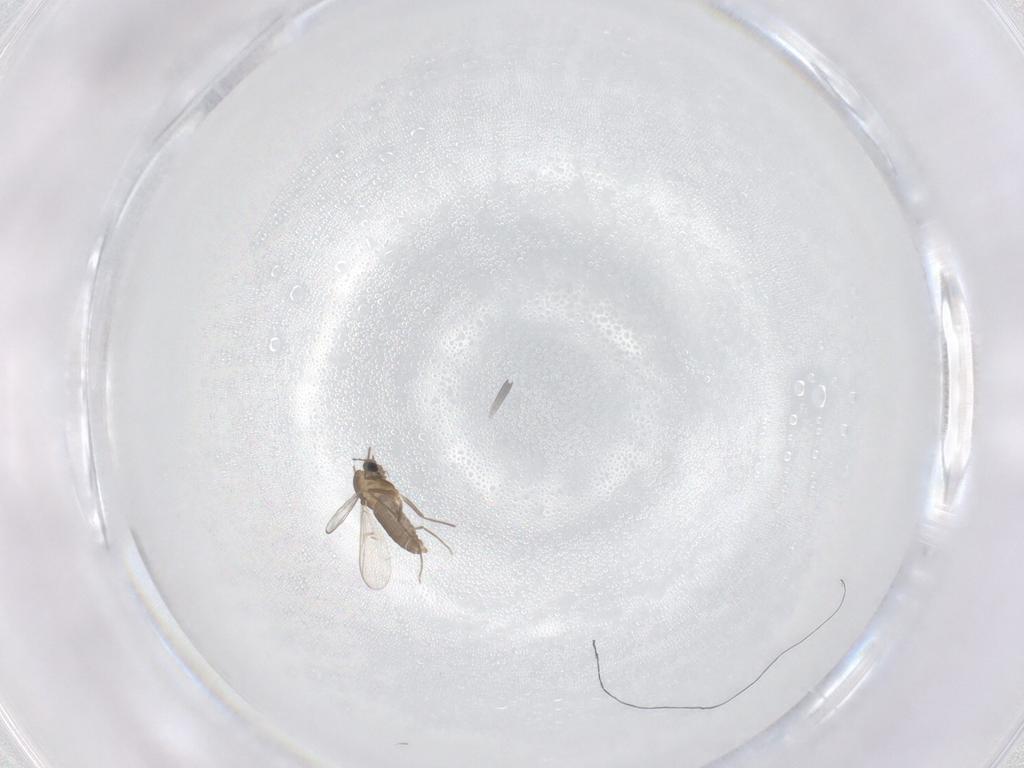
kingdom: Animalia
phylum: Arthropoda
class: Insecta
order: Diptera
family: Chironomidae
